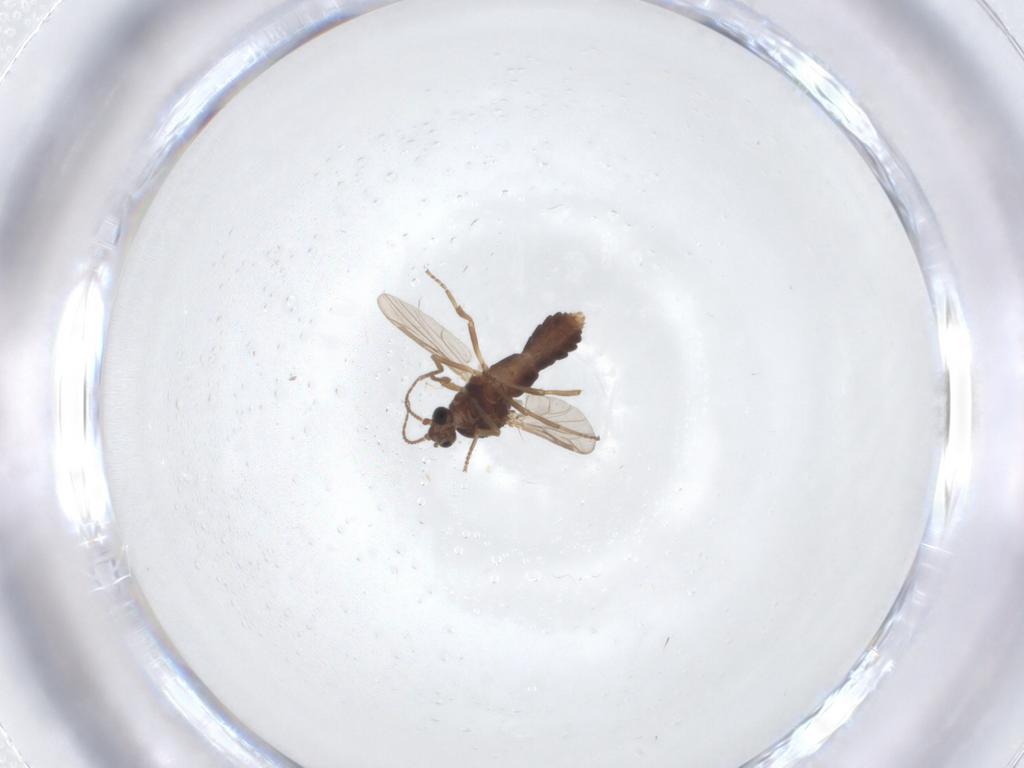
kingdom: Animalia
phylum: Arthropoda
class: Insecta
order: Diptera
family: Ceratopogonidae
